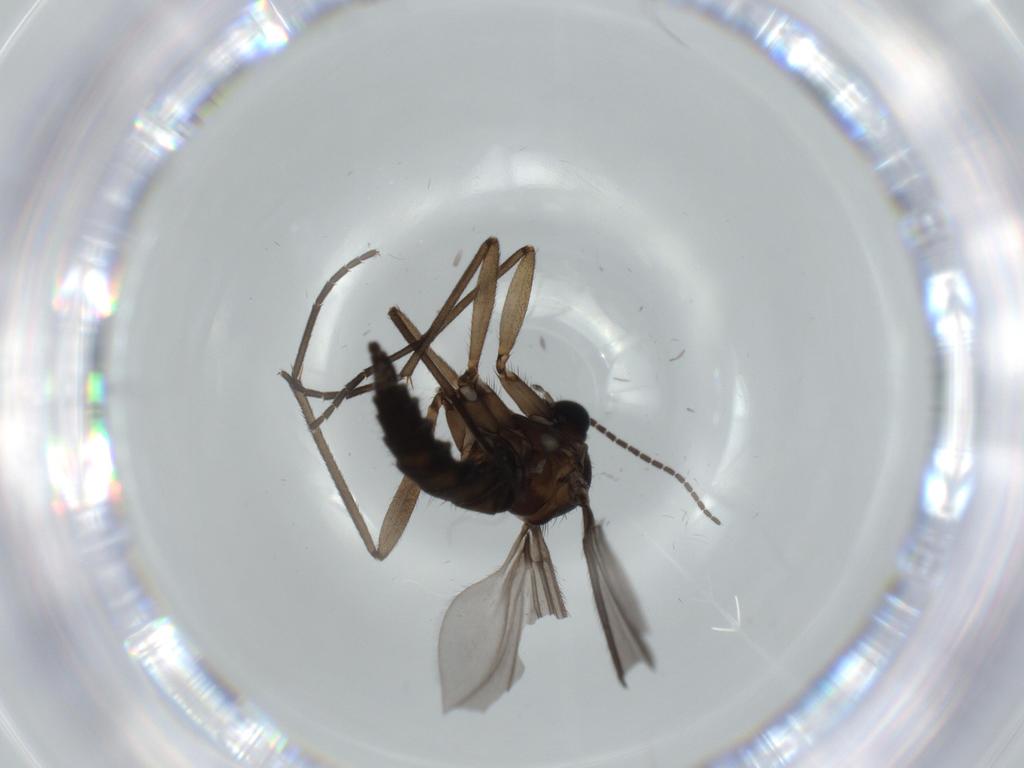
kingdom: Animalia
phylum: Arthropoda
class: Insecta
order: Diptera
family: Sciaridae
